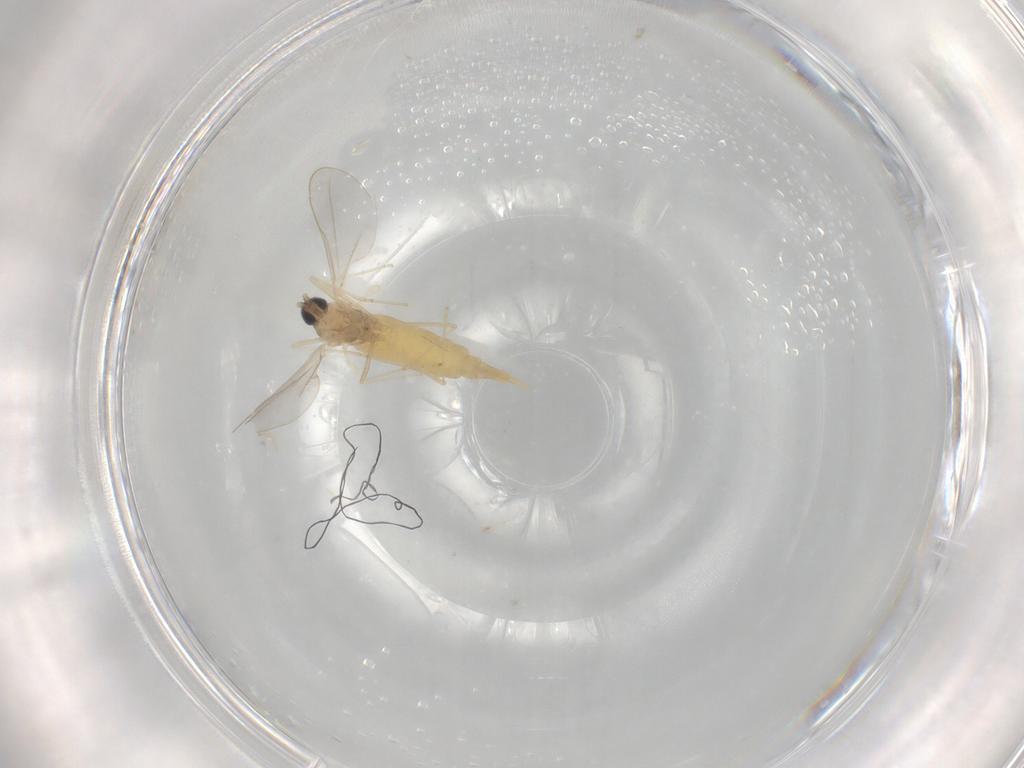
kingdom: Animalia
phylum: Arthropoda
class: Insecta
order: Diptera
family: Cecidomyiidae
